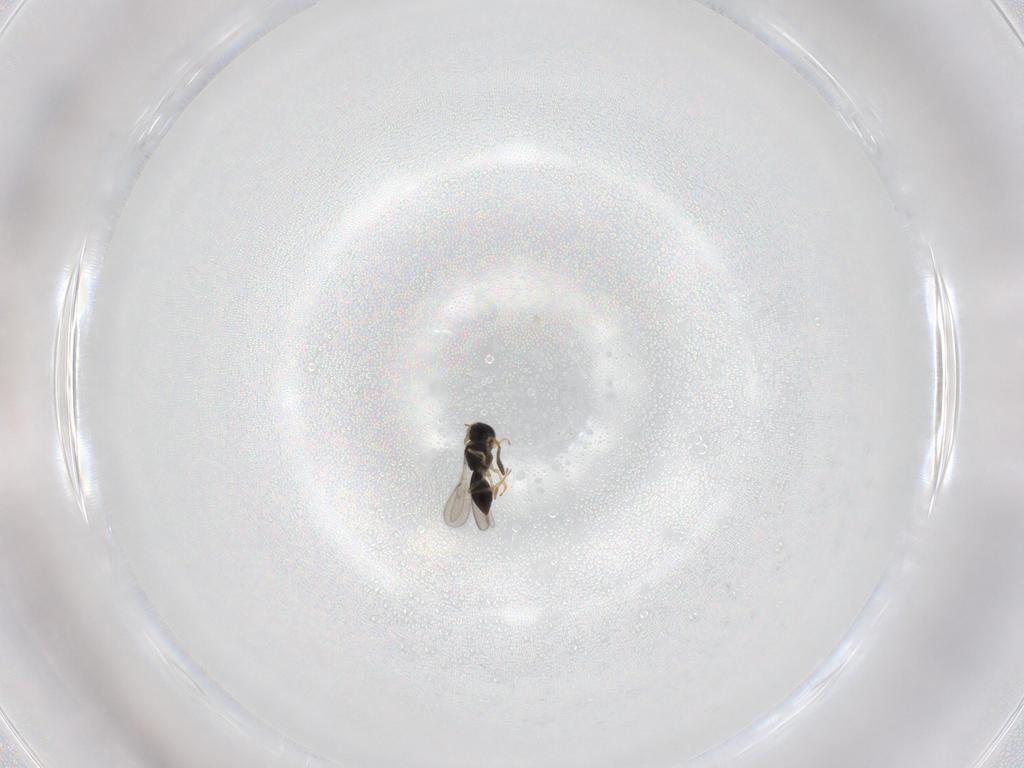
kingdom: Animalia
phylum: Arthropoda
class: Insecta
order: Hymenoptera
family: Scelionidae
